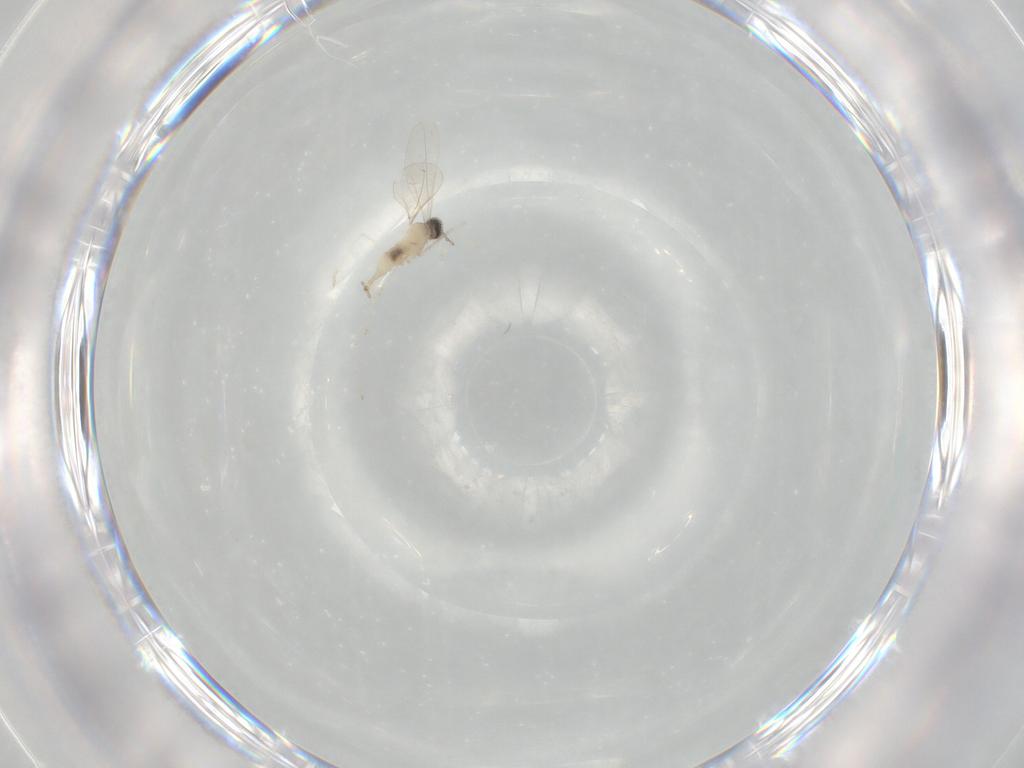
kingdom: Animalia
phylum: Arthropoda
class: Insecta
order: Diptera
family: Cecidomyiidae
